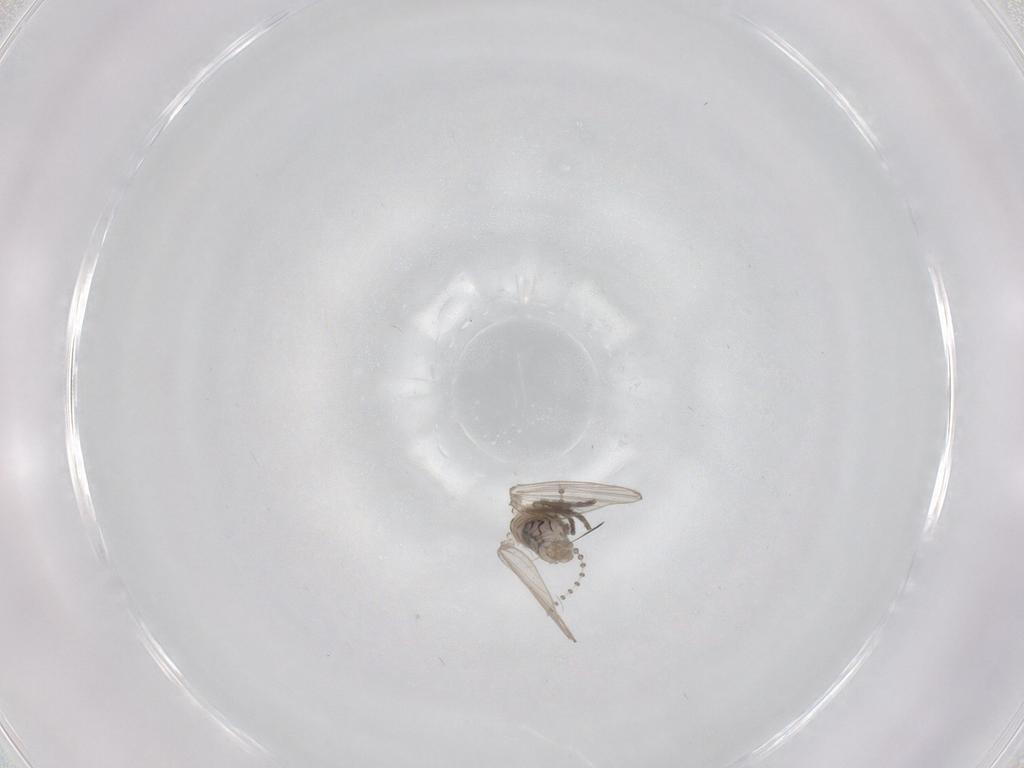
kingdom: Animalia
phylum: Arthropoda
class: Insecta
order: Diptera
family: Psychodidae
